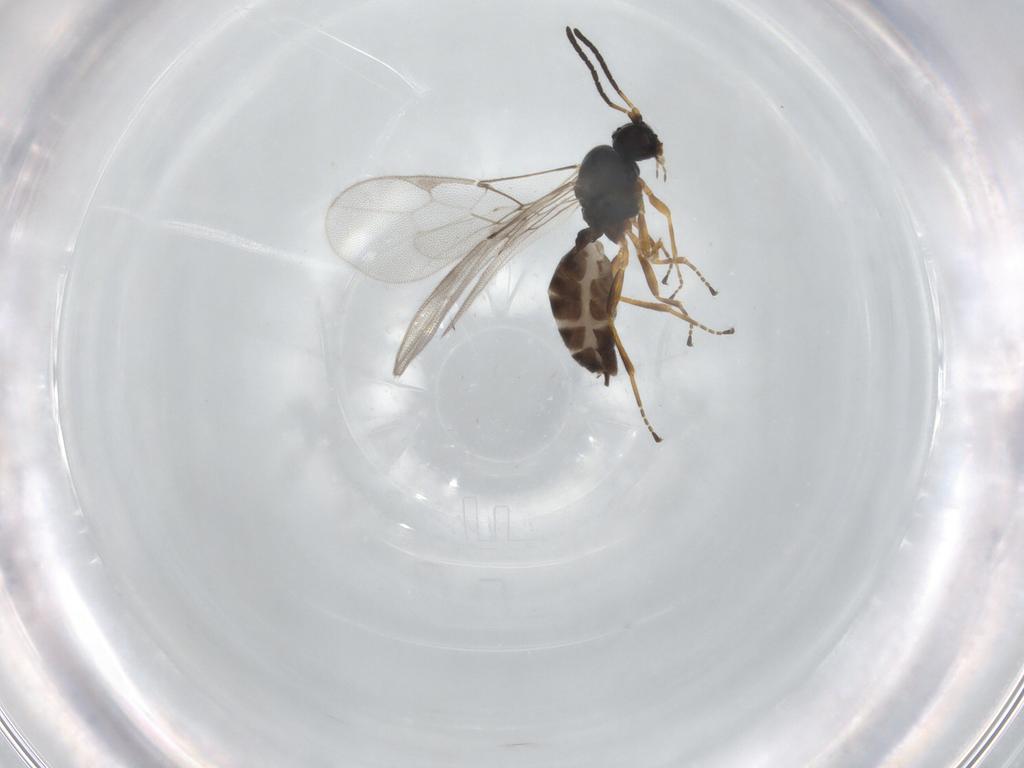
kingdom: Animalia
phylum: Arthropoda
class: Insecta
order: Hymenoptera
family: Braconidae
